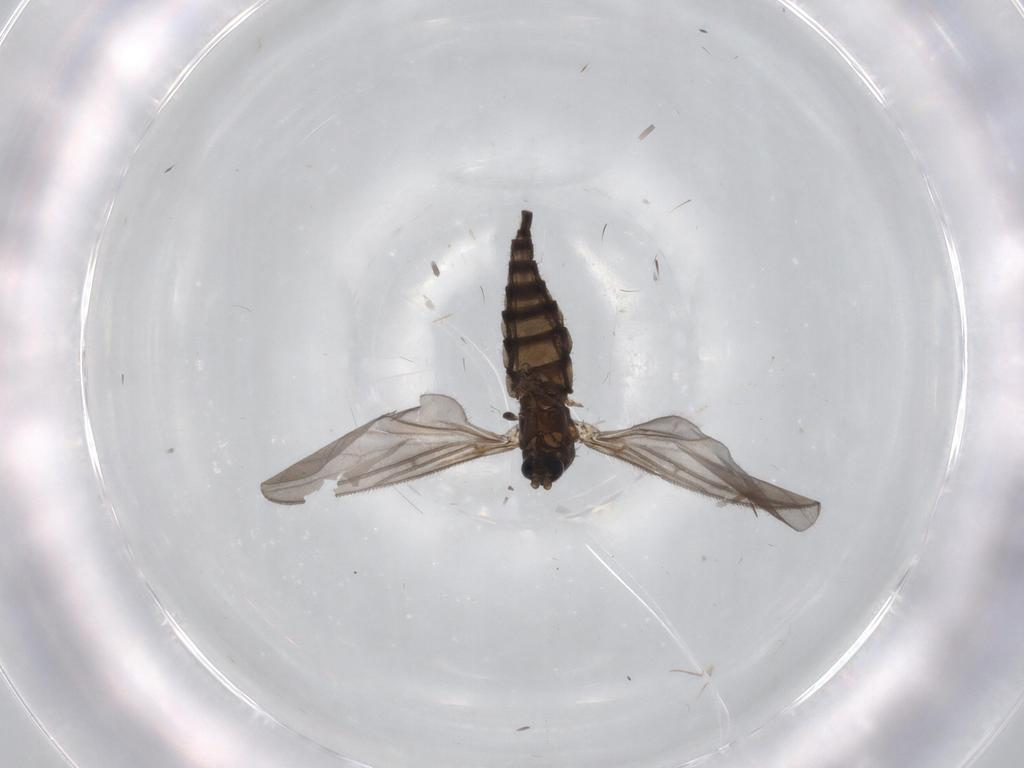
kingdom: Animalia
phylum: Arthropoda
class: Insecta
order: Diptera
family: Sciaridae
